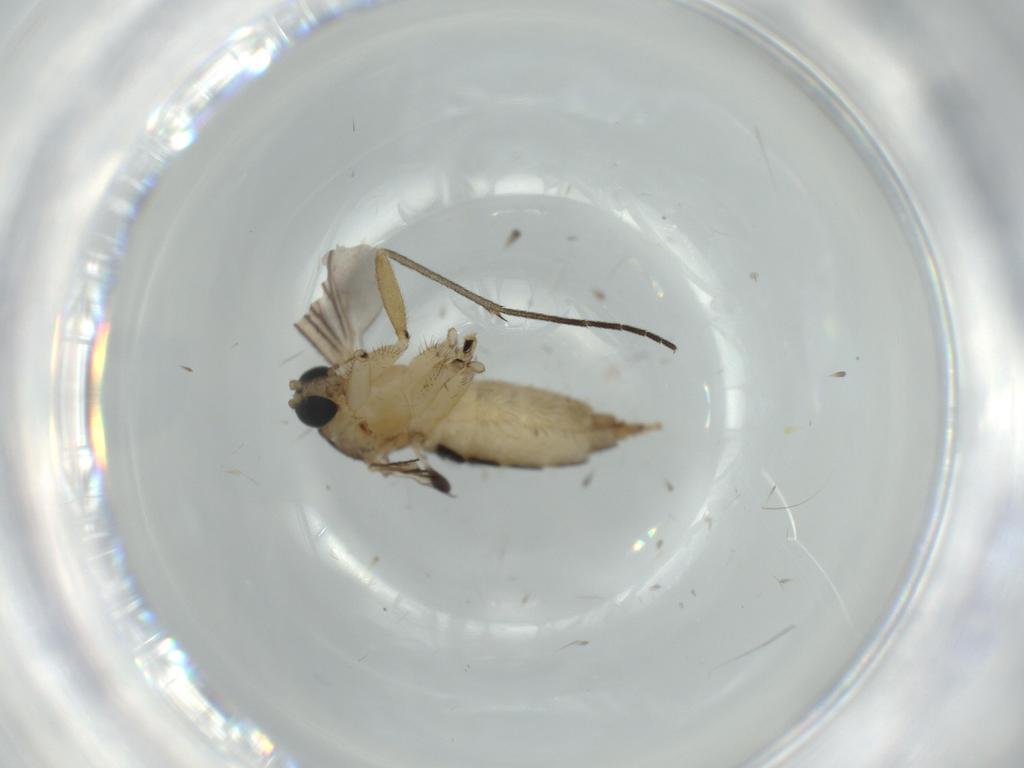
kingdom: Animalia
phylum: Arthropoda
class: Insecta
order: Diptera
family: Sciaridae
